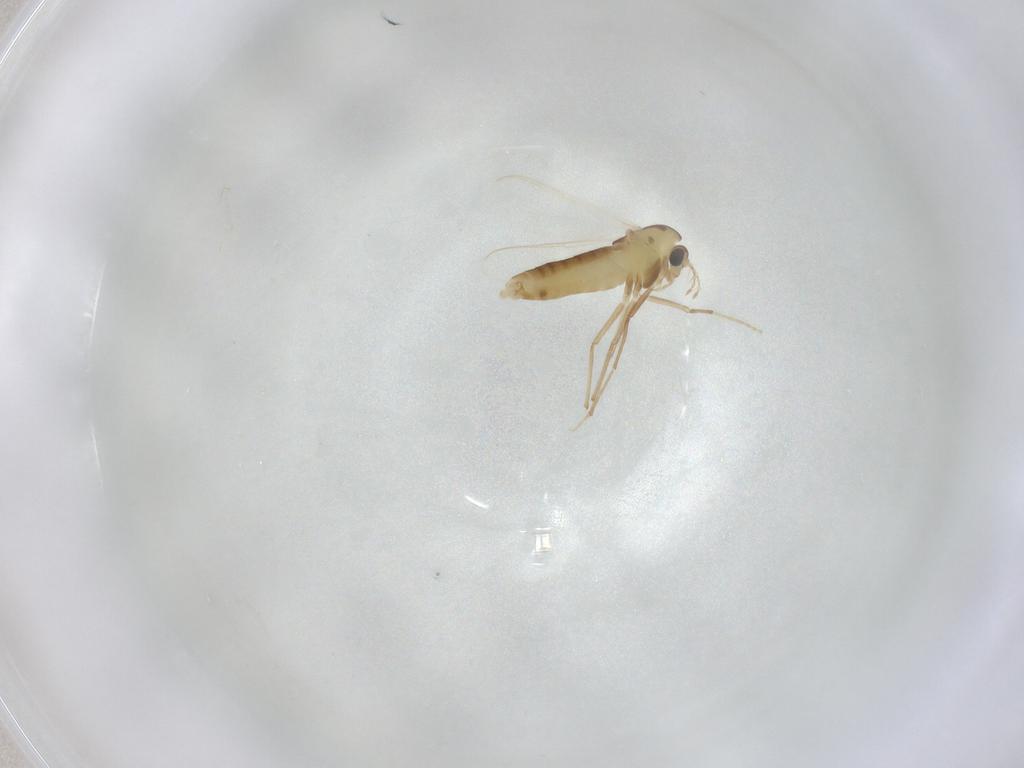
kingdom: Animalia
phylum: Arthropoda
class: Insecta
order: Diptera
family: Chironomidae
